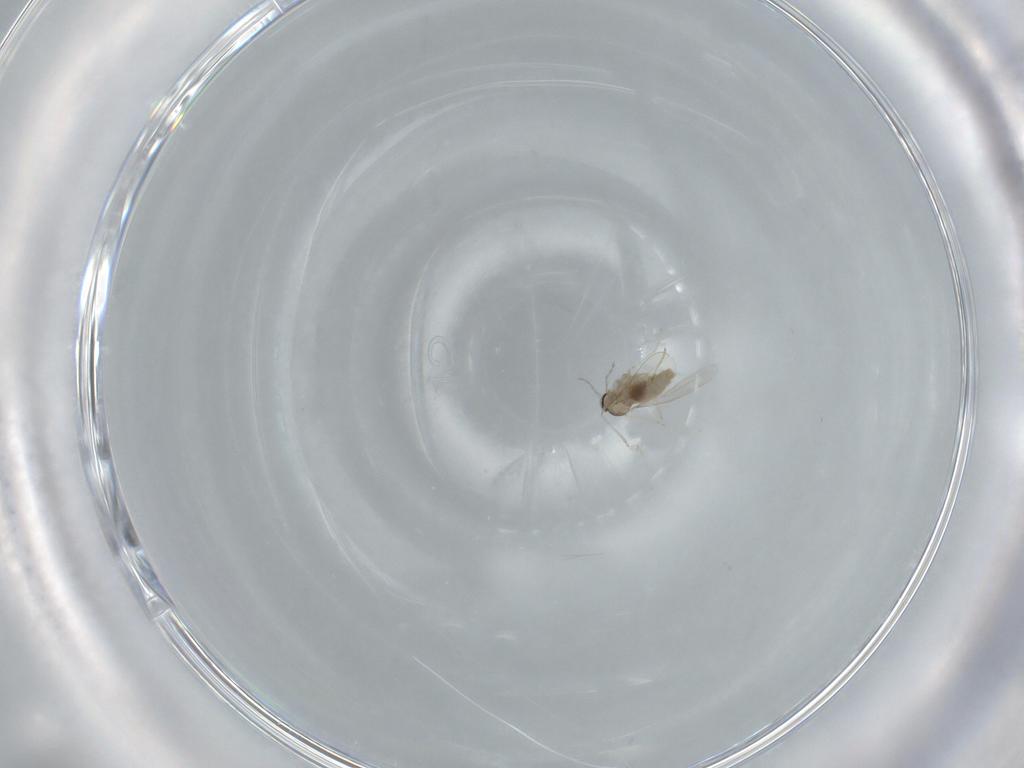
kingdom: Animalia
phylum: Arthropoda
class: Insecta
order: Diptera
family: Cecidomyiidae
